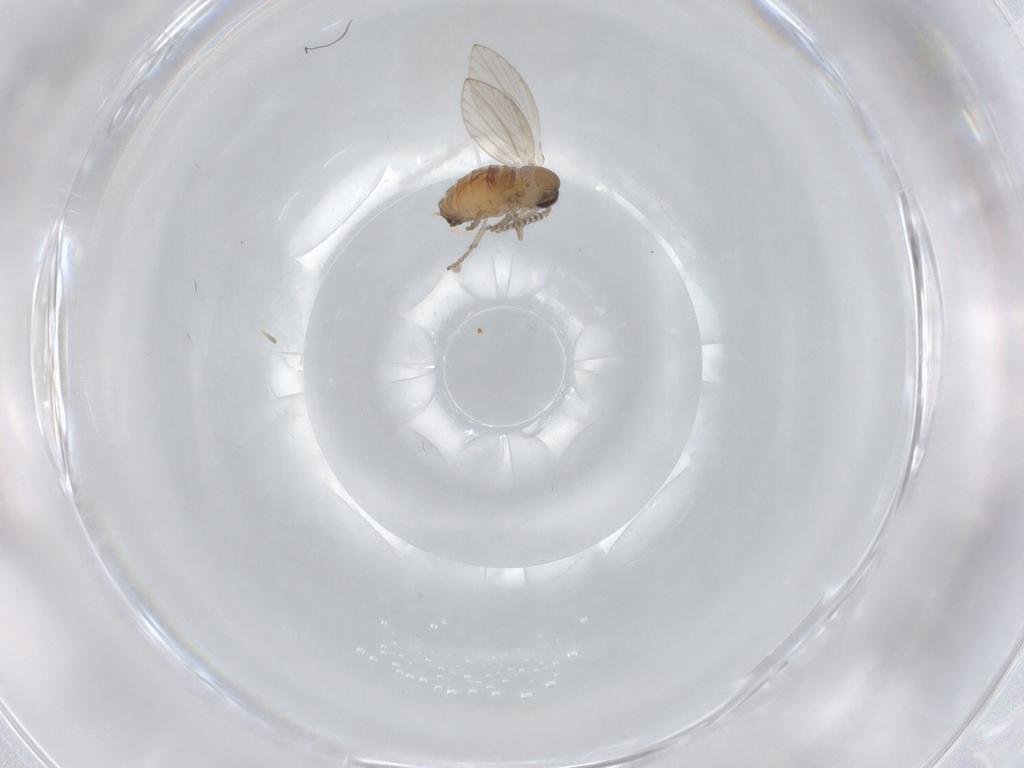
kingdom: Animalia
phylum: Arthropoda
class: Insecta
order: Diptera
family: Psychodidae
